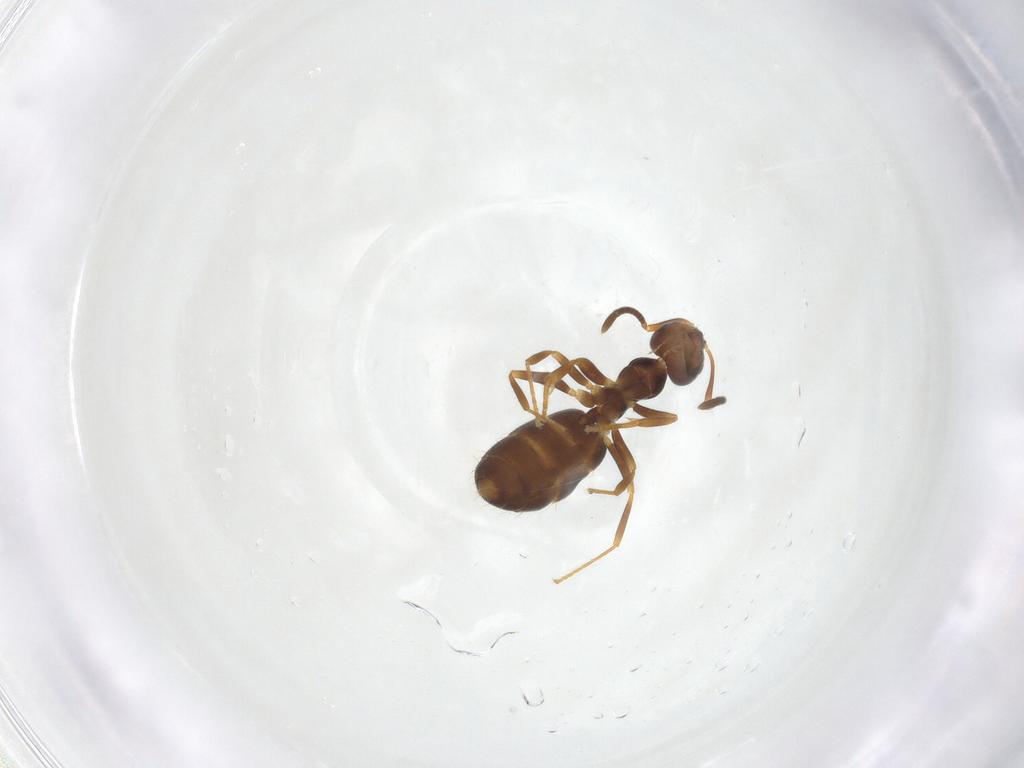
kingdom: Animalia
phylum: Arthropoda
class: Insecta
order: Hymenoptera
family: Formicidae
